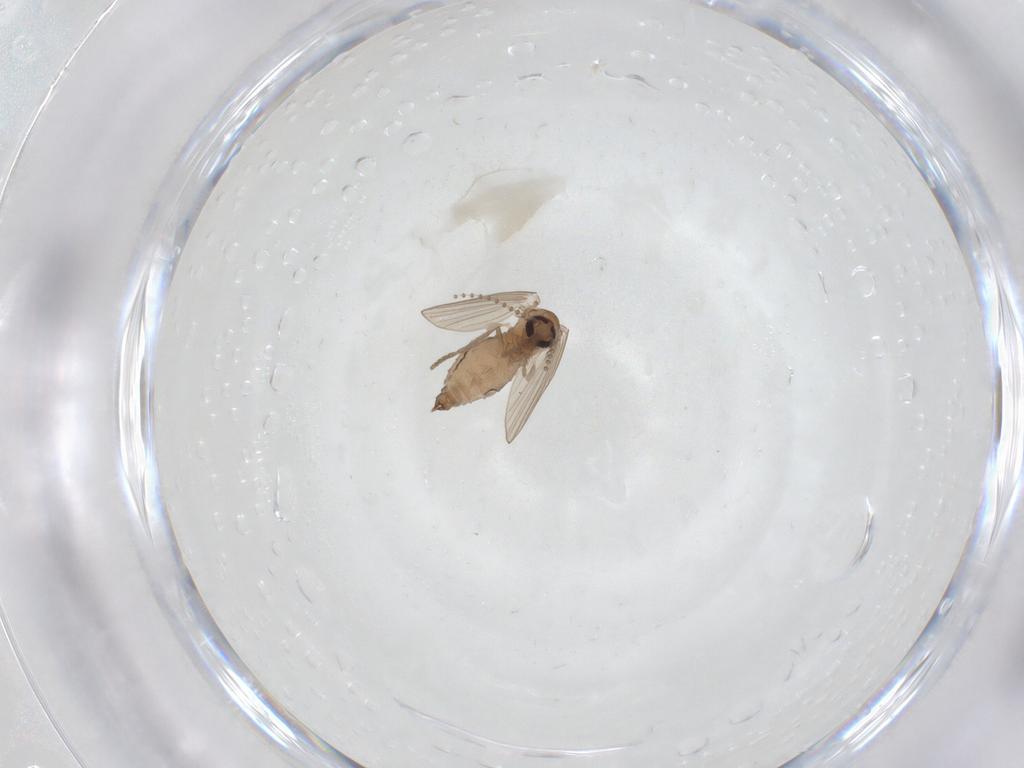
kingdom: Animalia
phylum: Arthropoda
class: Insecta
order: Diptera
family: Psychodidae
